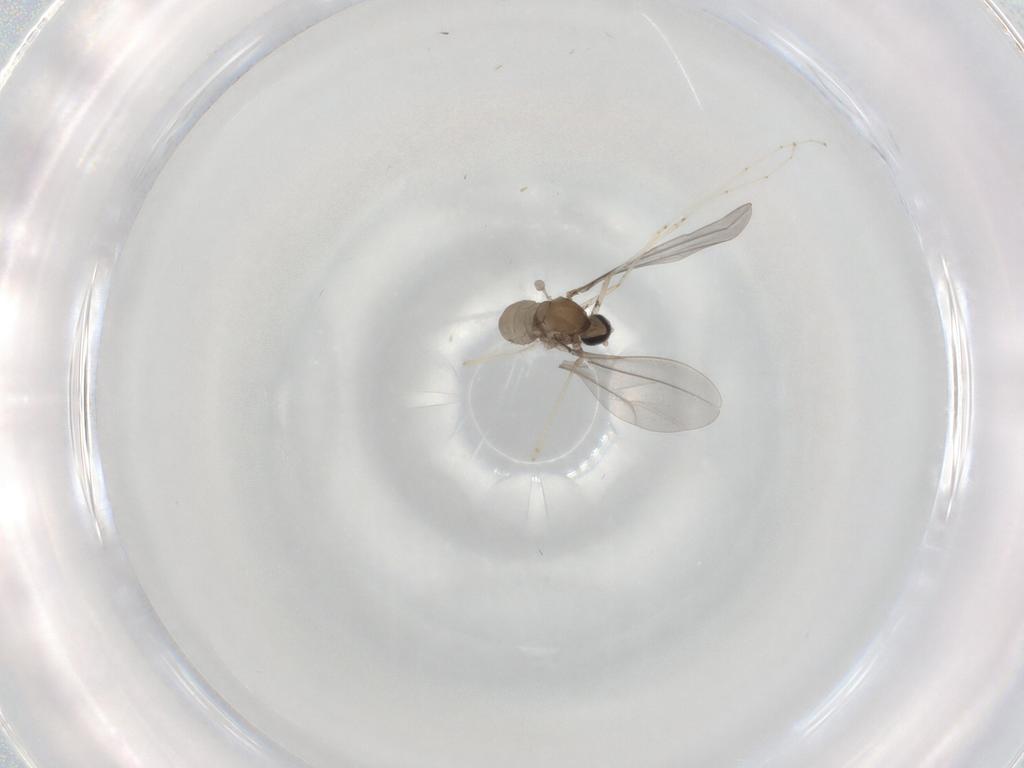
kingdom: Animalia
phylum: Arthropoda
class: Insecta
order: Diptera
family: Cecidomyiidae
